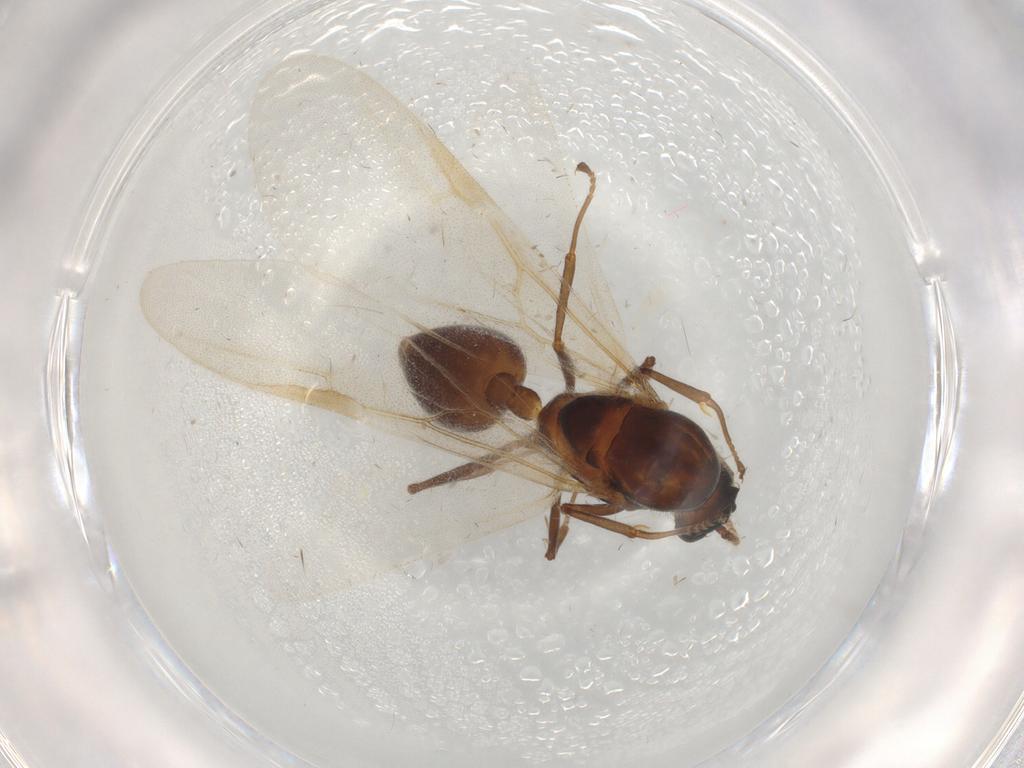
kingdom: Animalia
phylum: Arthropoda
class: Insecta
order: Hymenoptera
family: Formicidae
